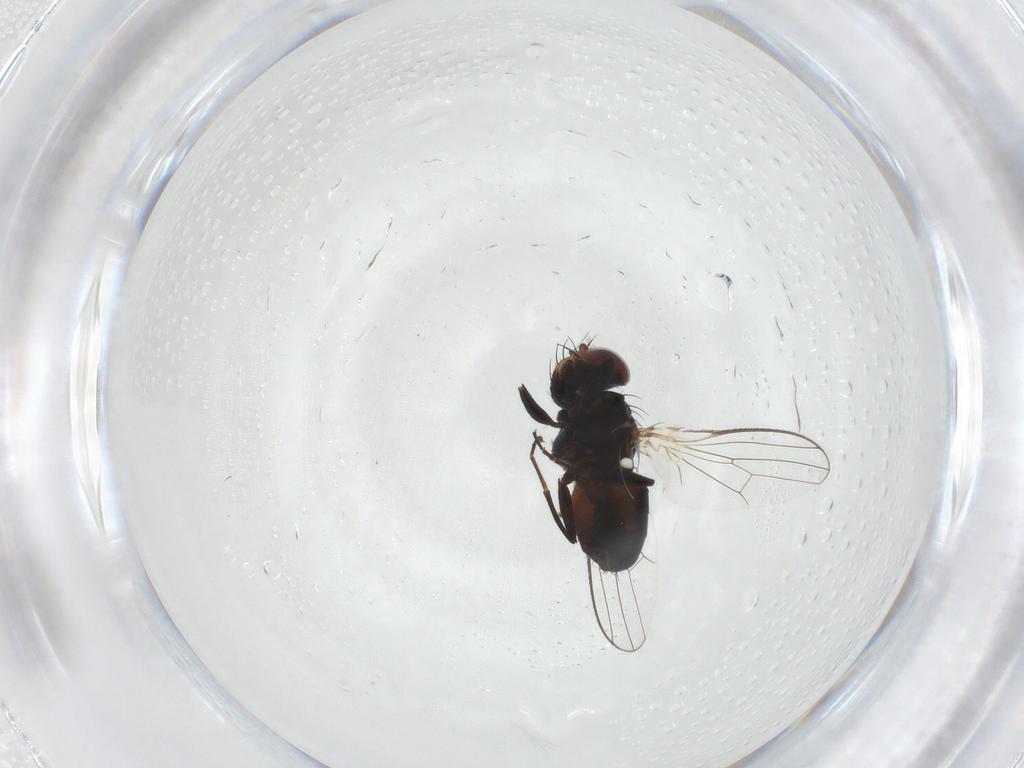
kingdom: Animalia
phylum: Arthropoda
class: Insecta
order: Diptera
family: Carnidae
